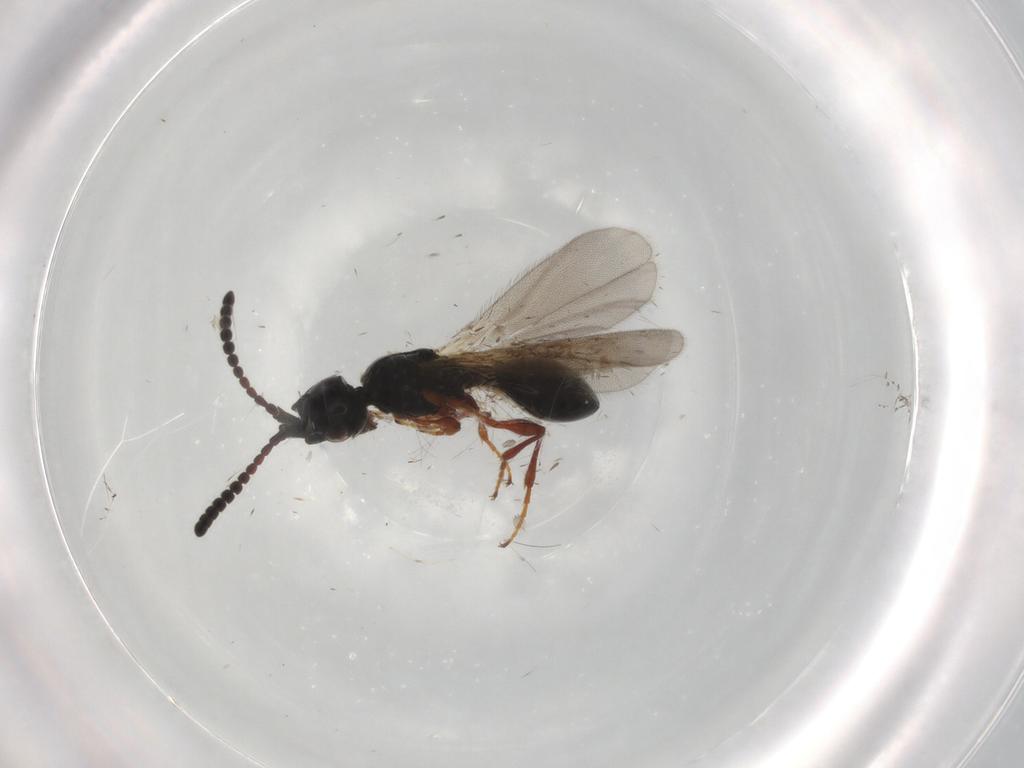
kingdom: Animalia
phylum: Arthropoda
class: Insecta
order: Hymenoptera
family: Diapriidae
